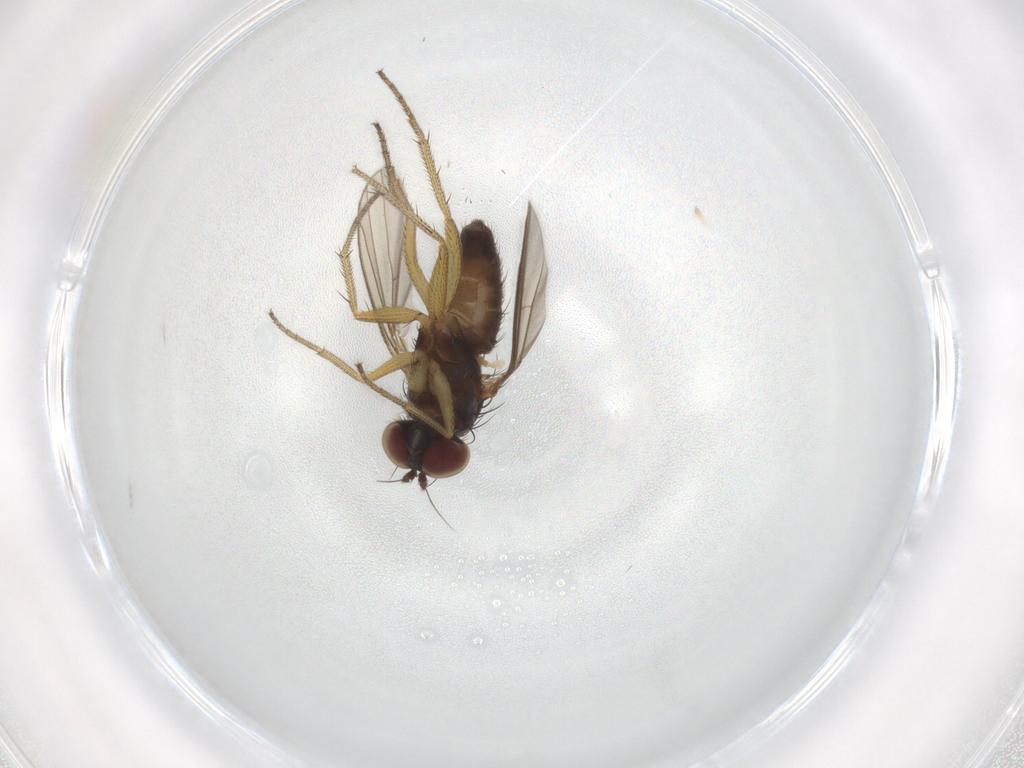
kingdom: Animalia
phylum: Arthropoda
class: Insecta
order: Diptera
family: Dolichopodidae
